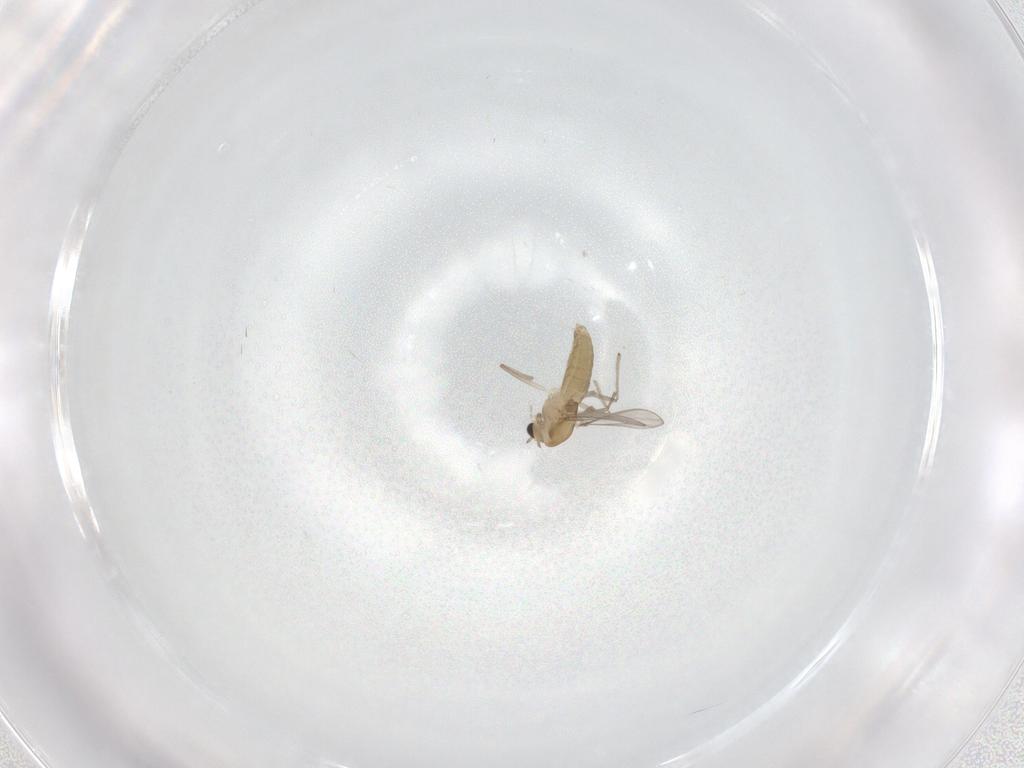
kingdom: Animalia
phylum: Arthropoda
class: Insecta
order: Diptera
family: Chironomidae
